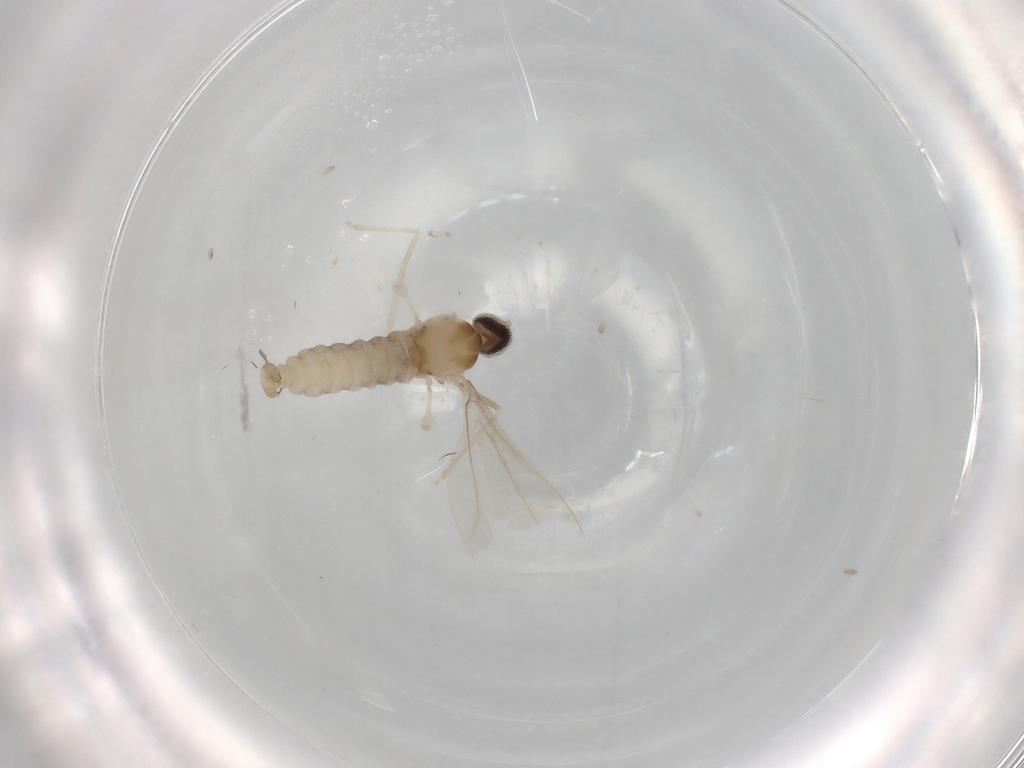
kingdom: Animalia
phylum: Arthropoda
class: Insecta
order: Diptera
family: Cecidomyiidae
